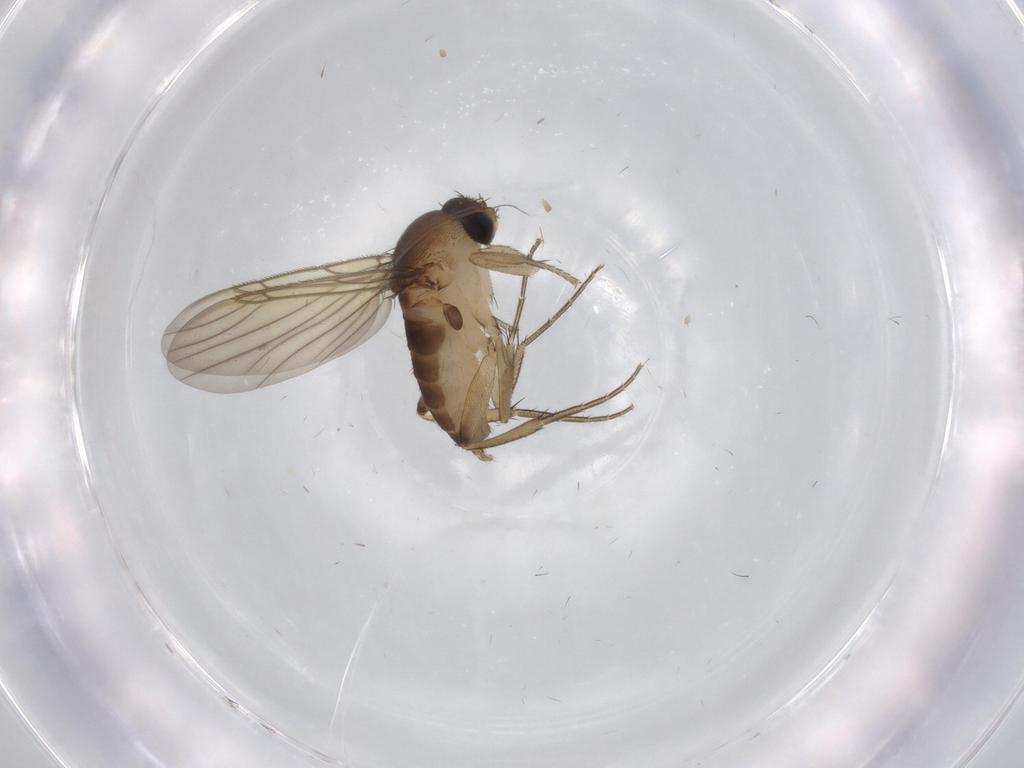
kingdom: Animalia
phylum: Arthropoda
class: Insecta
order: Diptera
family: Phoridae
